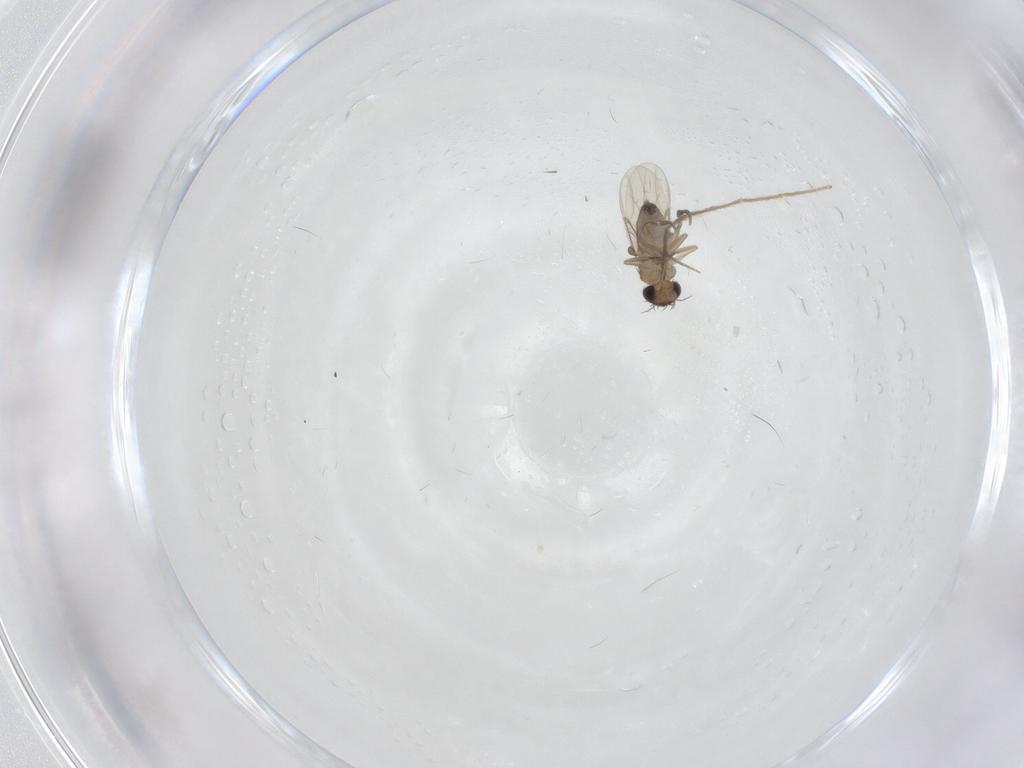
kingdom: Animalia
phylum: Arthropoda
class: Insecta
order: Diptera
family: Phoridae
